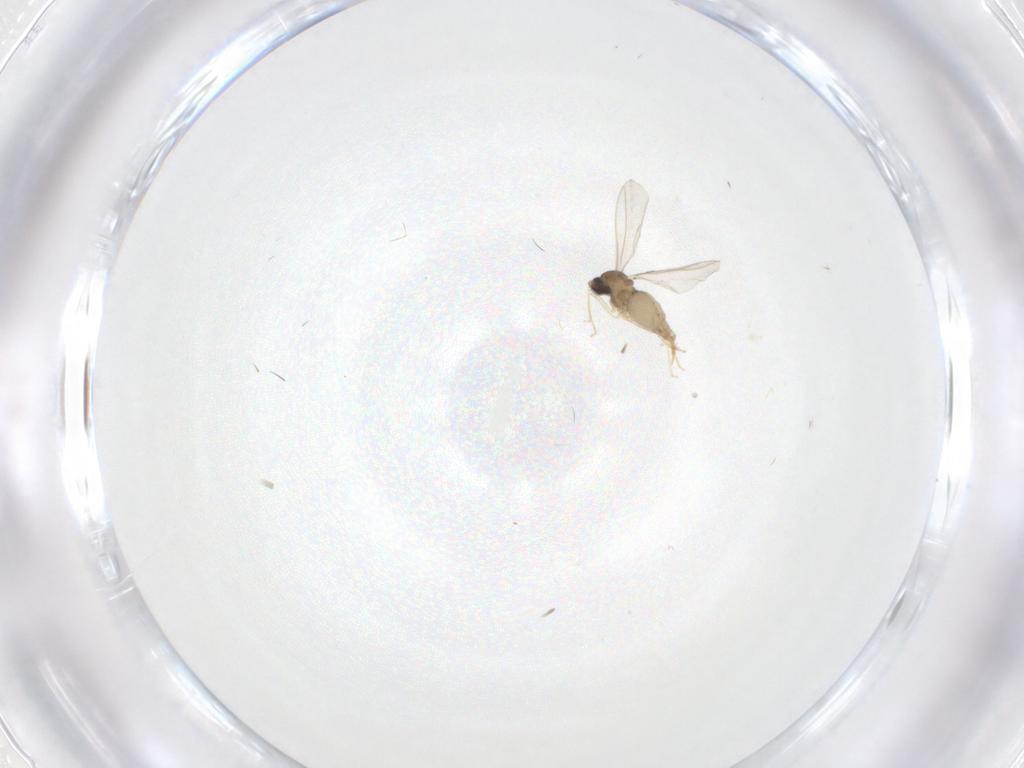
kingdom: Animalia
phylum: Arthropoda
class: Insecta
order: Diptera
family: Cecidomyiidae
